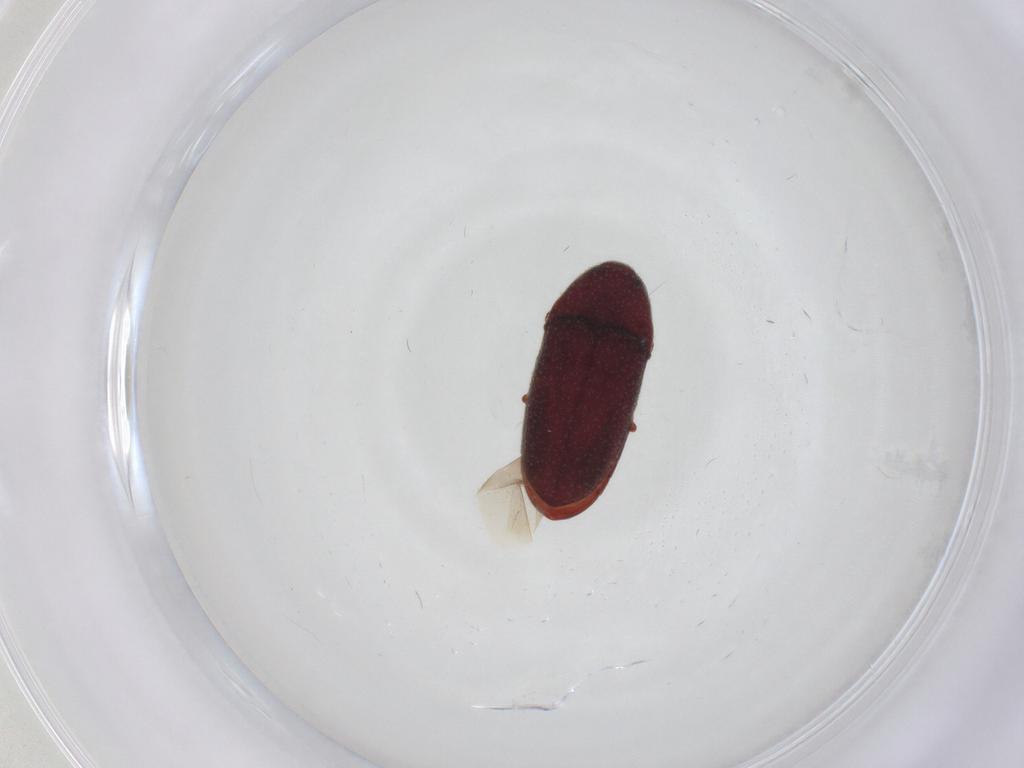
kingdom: Animalia
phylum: Arthropoda
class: Insecta
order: Coleoptera
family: Throscidae
